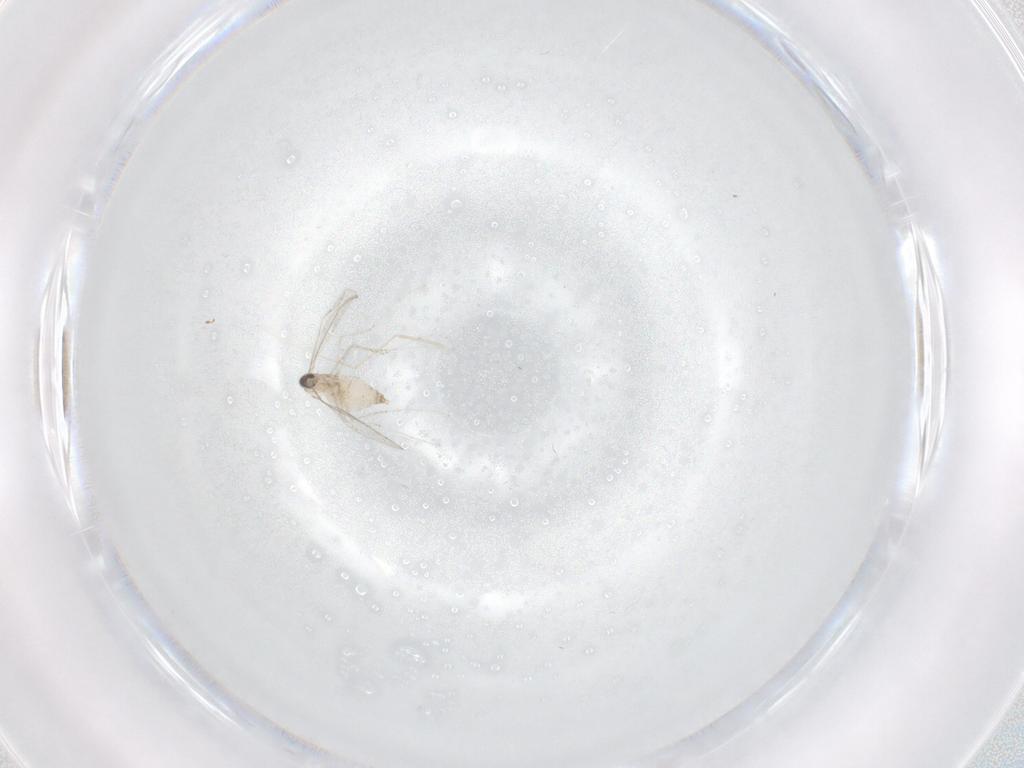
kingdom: Animalia
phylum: Arthropoda
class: Insecta
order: Diptera
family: Cecidomyiidae
